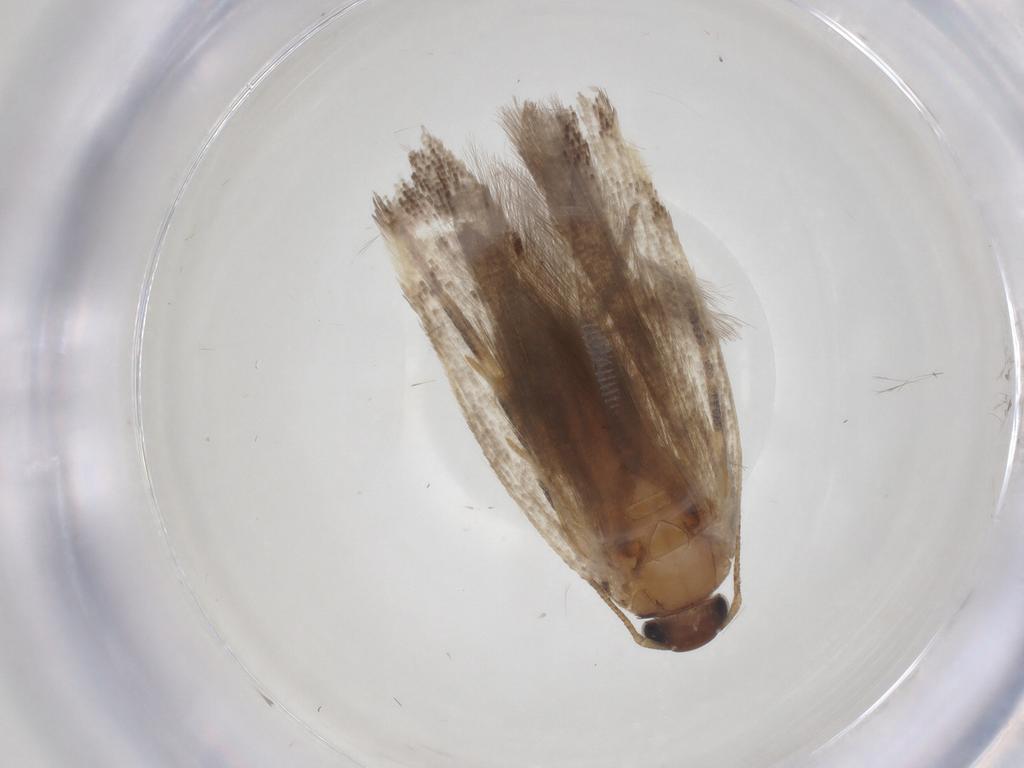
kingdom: Animalia
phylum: Arthropoda
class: Insecta
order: Lepidoptera
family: Gelechiidae
